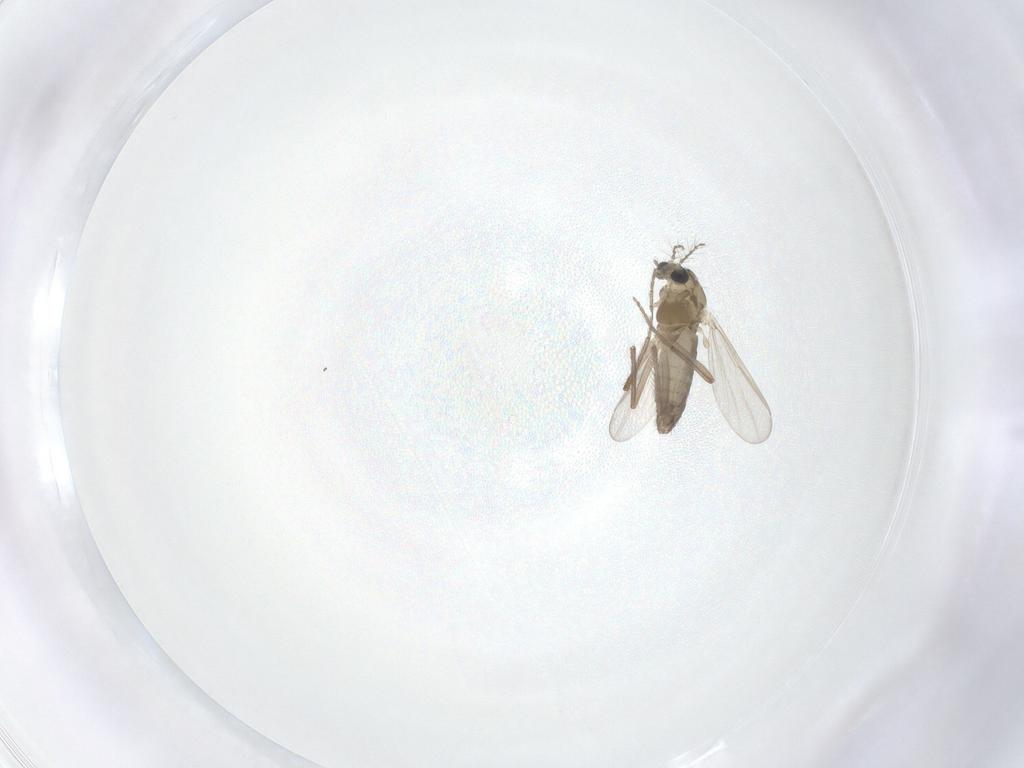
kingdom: Animalia
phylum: Arthropoda
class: Insecta
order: Diptera
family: Chironomidae
